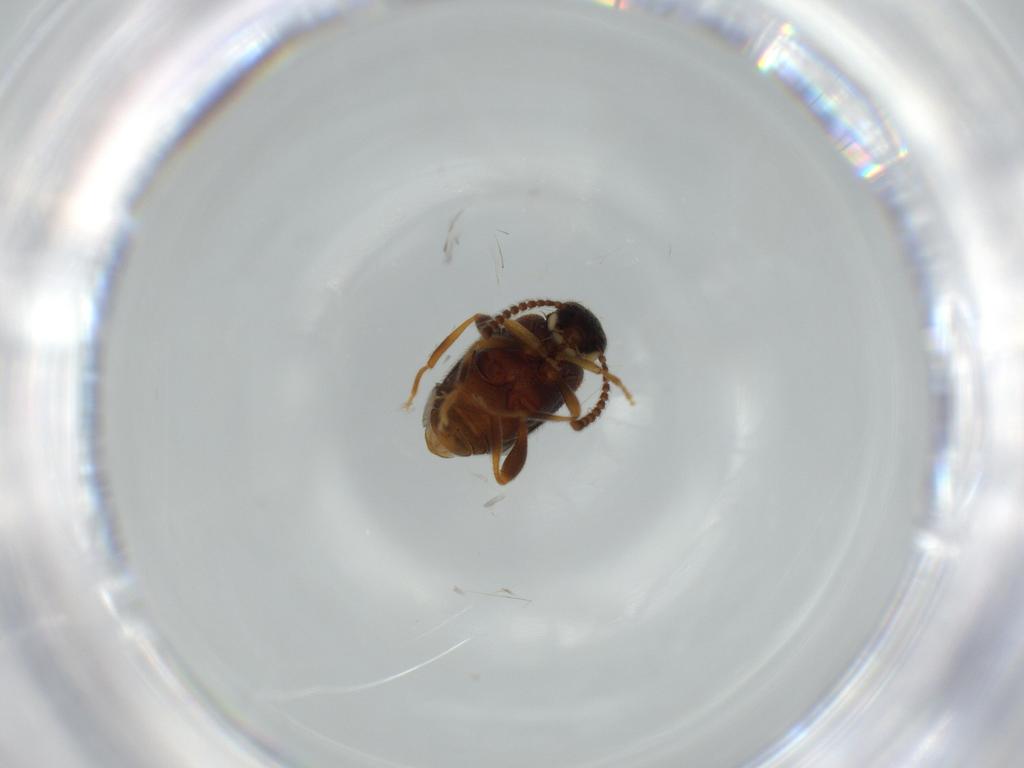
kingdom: Animalia
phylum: Arthropoda
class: Insecta
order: Coleoptera
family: Aderidae
